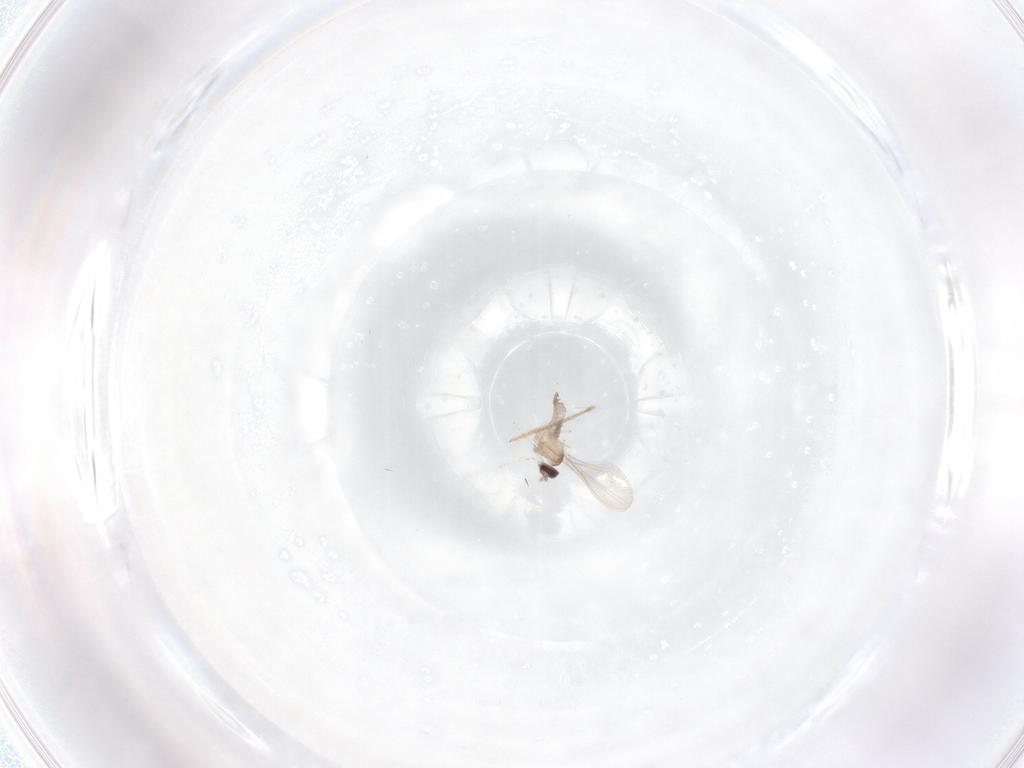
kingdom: Animalia
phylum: Arthropoda
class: Insecta
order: Diptera
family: Cecidomyiidae
